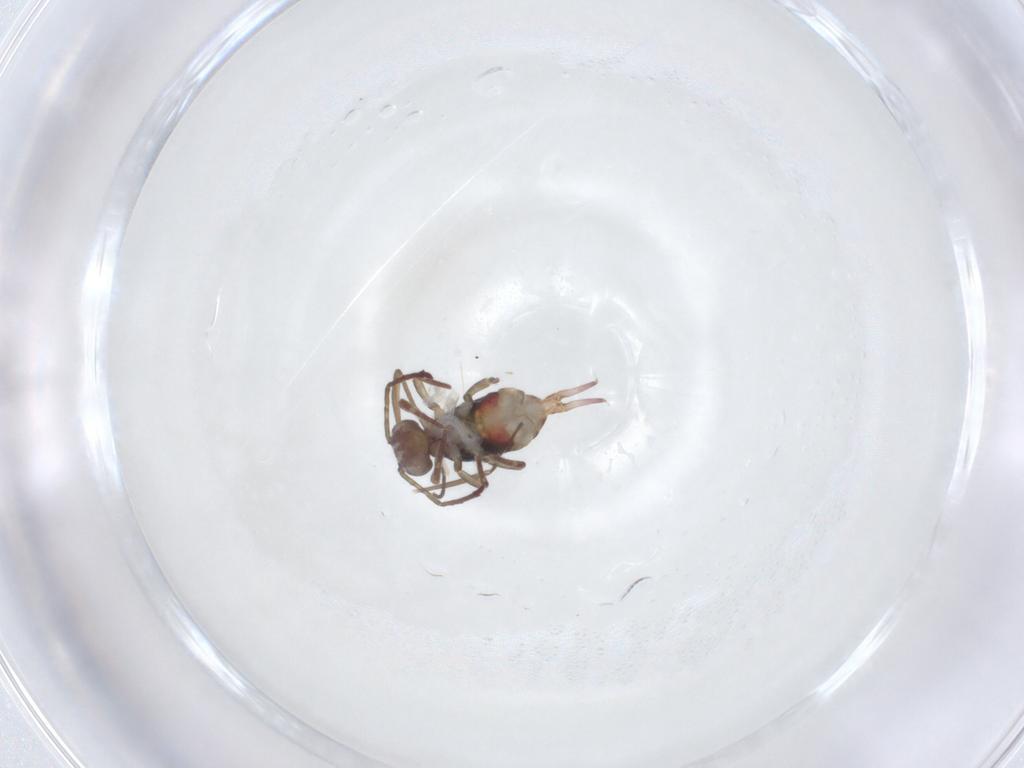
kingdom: Animalia
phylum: Arthropoda
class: Collembola
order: Symphypleona
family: Dicyrtomidae
